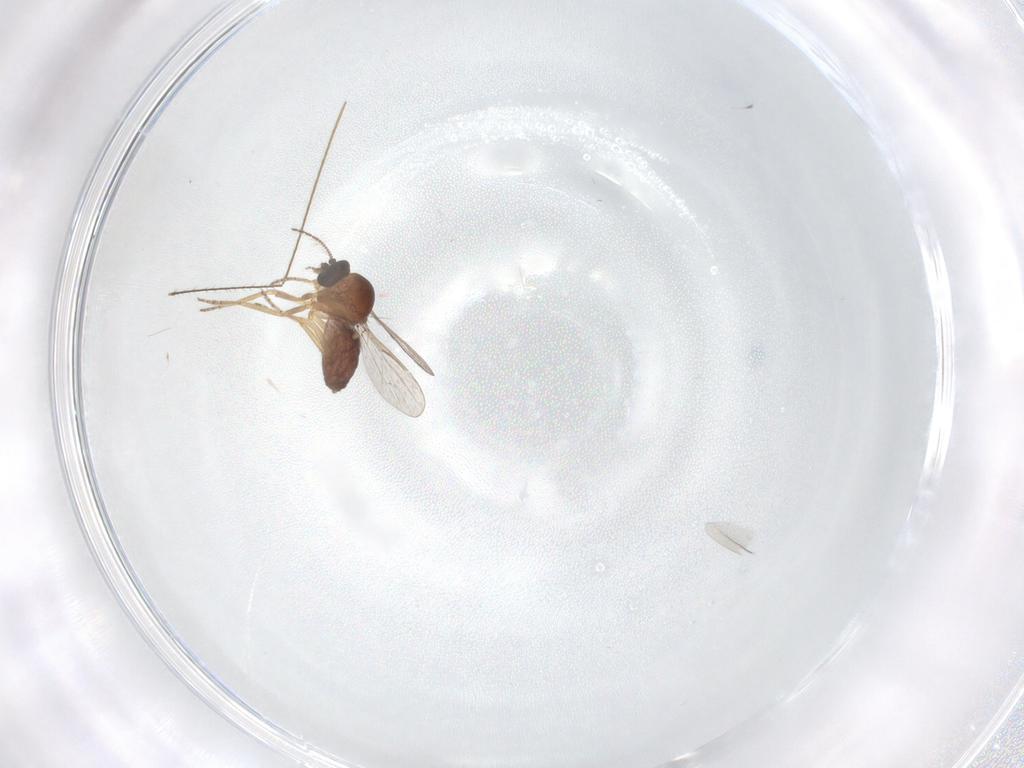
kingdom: Animalia
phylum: Arthropoda
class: Insecta
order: Diptera
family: Ceratopogonidae
